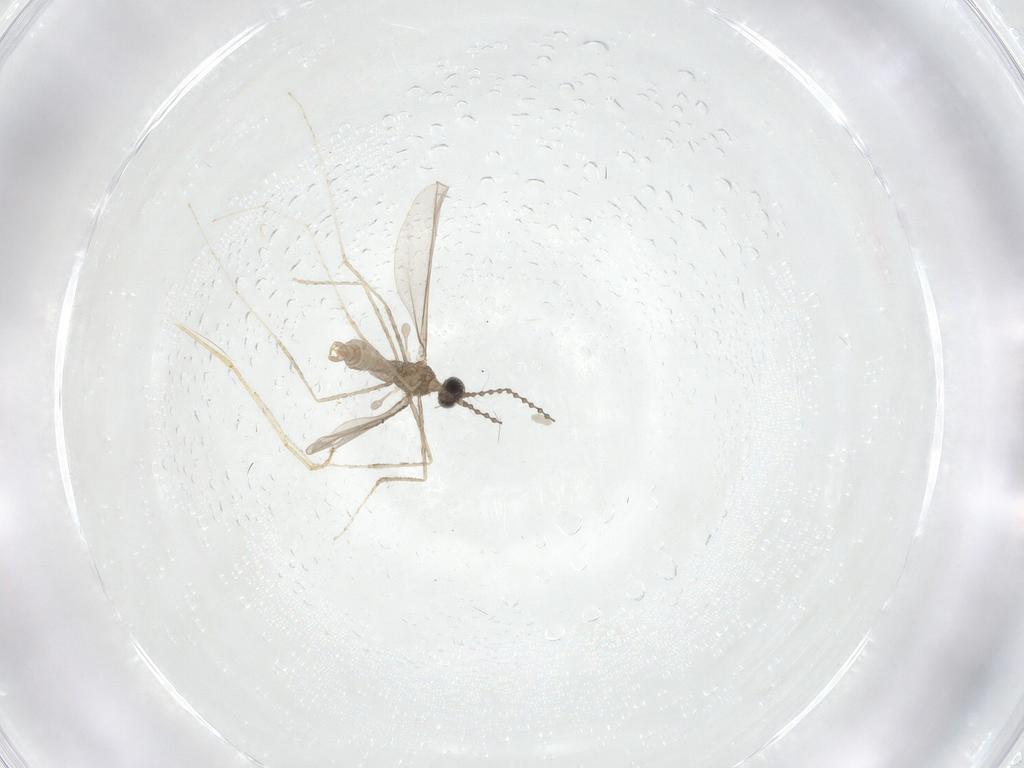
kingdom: Animalia
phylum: Arthropoda
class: Insecta
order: Diptera
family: Cecidomyiidae
